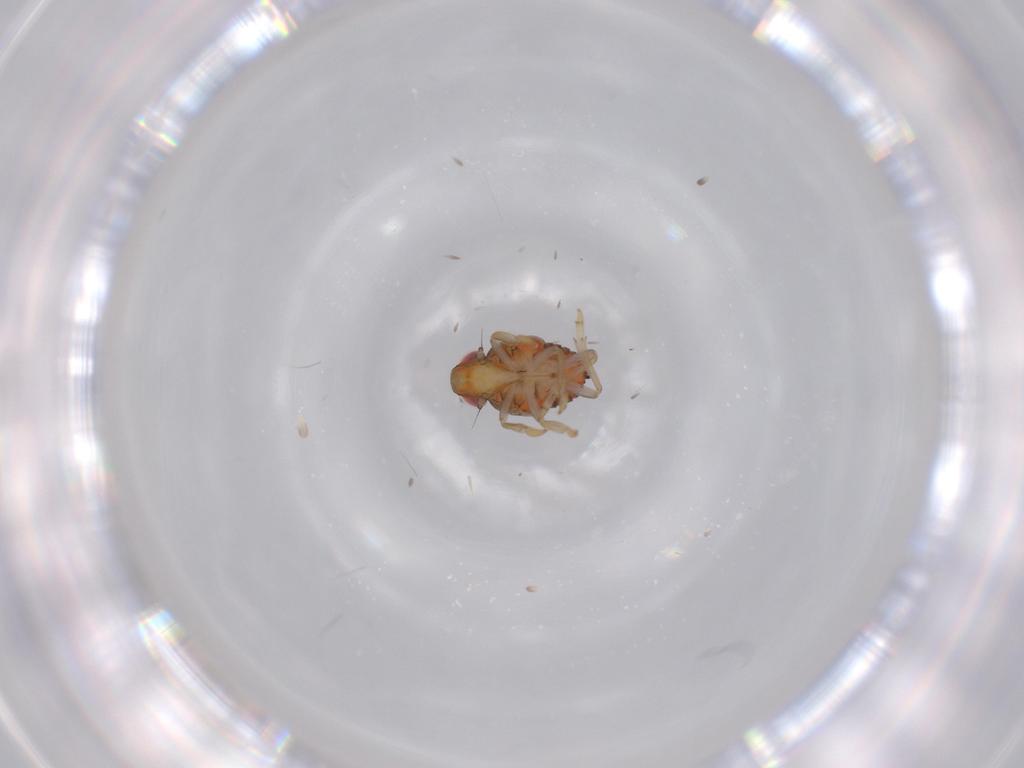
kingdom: Animalia
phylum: Arthropoda
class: Insecta
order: Hemiptera
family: Issidae
